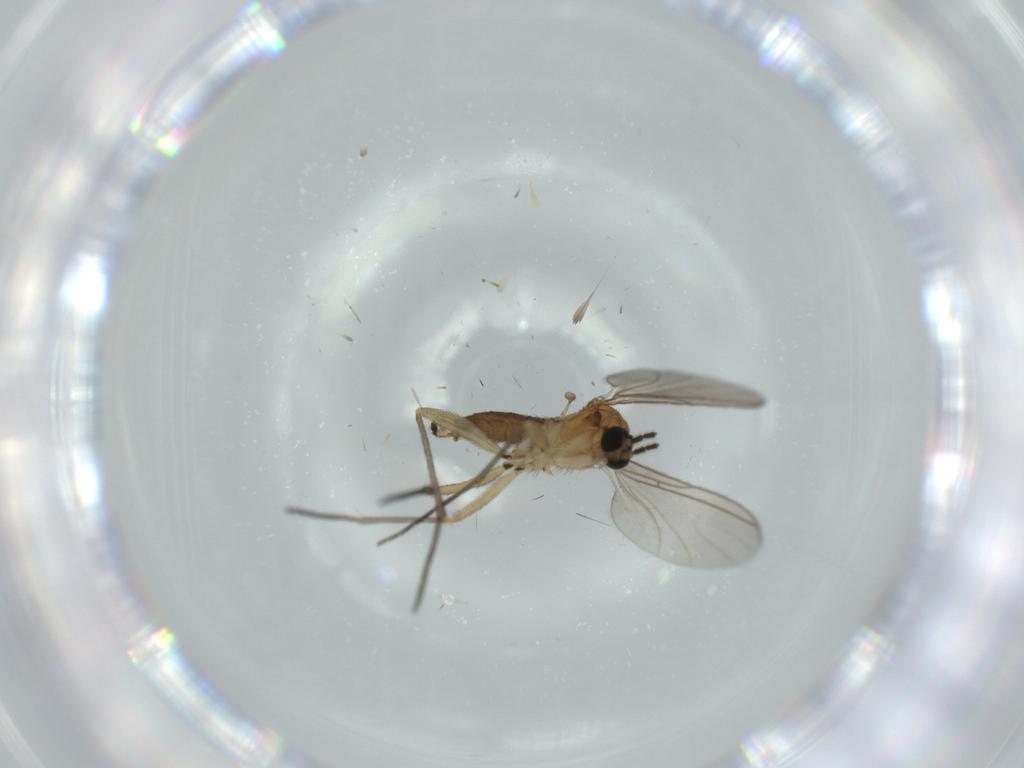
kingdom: Animalia
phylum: Arthropoda
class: Insecta
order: Diptera
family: Sciaridae
